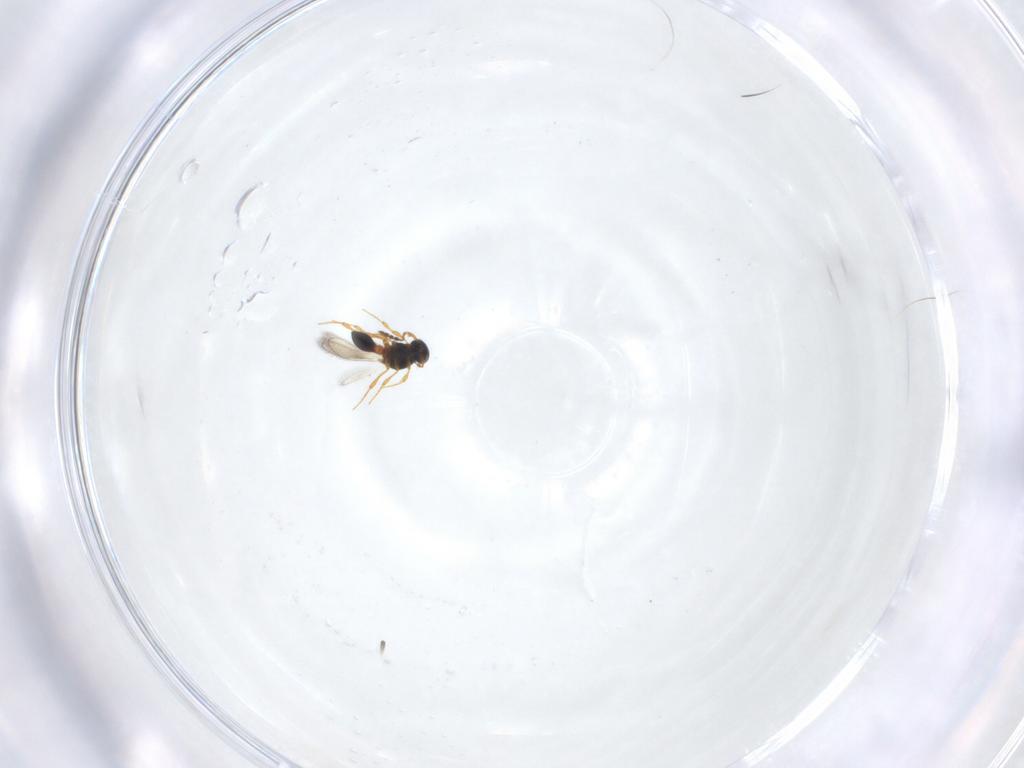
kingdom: Animalia
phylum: Arthropoda
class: Insecta
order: Hymenoptera
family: Platygastridae
